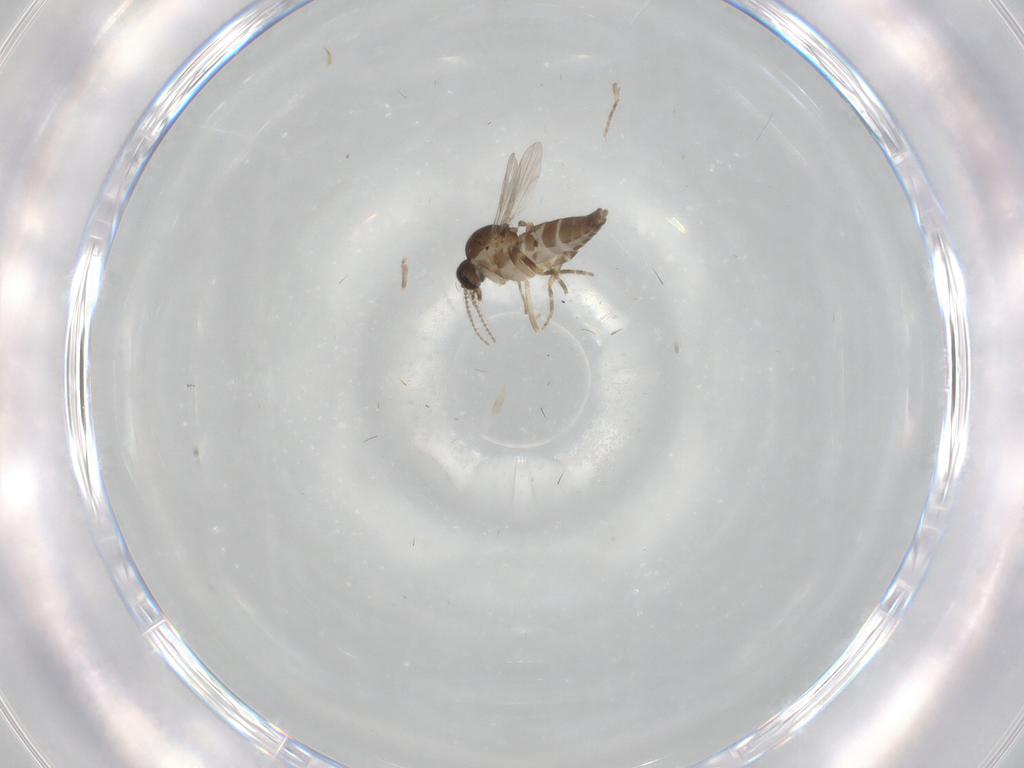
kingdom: Animalia
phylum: Arthropoda
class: Insecta
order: Diptera
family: Ceratopogonidae
